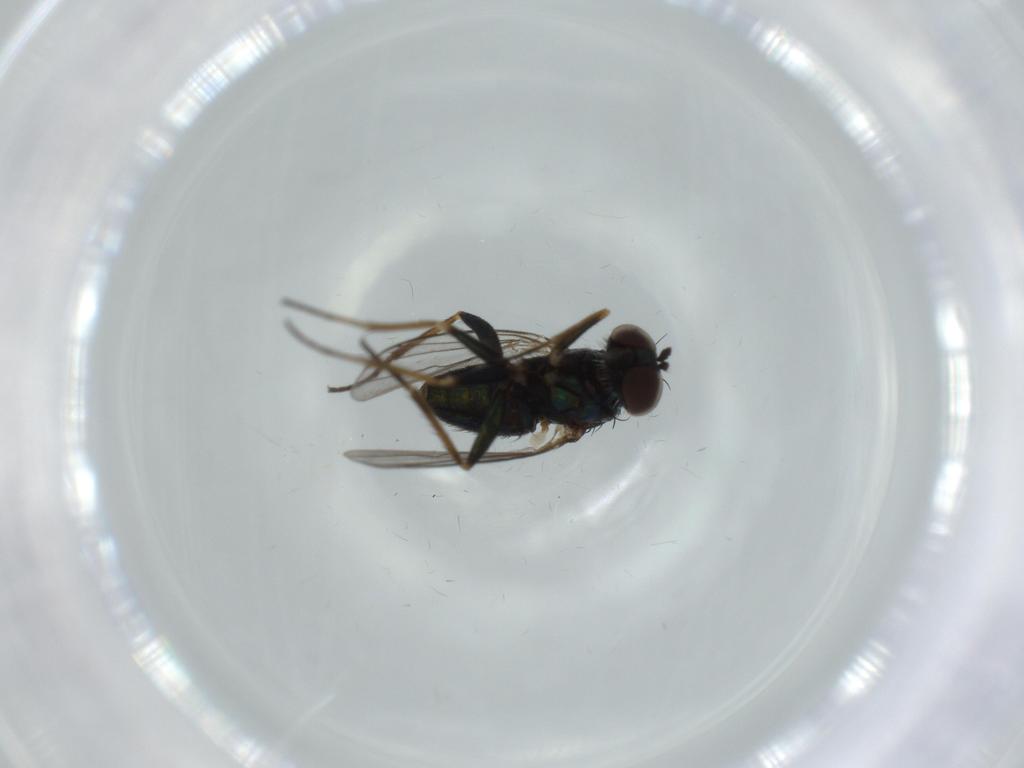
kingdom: Animalia
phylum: Arthropoda
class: Insecta
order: Diptera
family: Dolichopodidae
